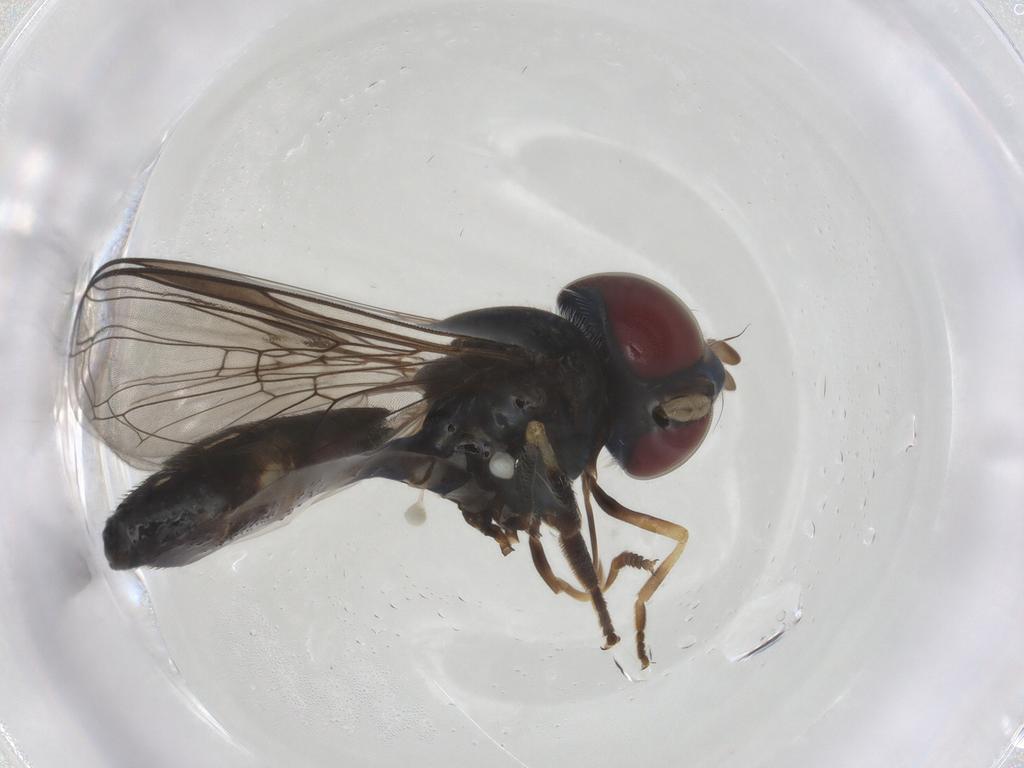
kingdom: Animalia
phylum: Arthropoda
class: Insecta
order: Diptera
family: Syrphidae
